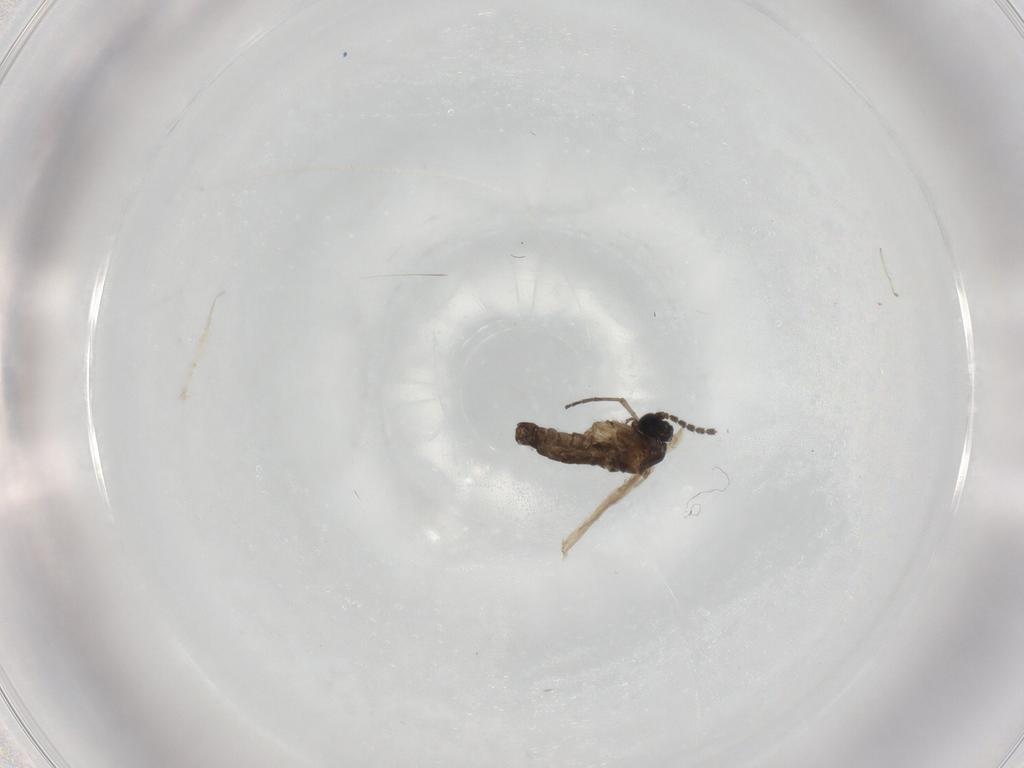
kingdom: Animalia
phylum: Arthropoda
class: Insecta
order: Diptera
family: Sciaridae
